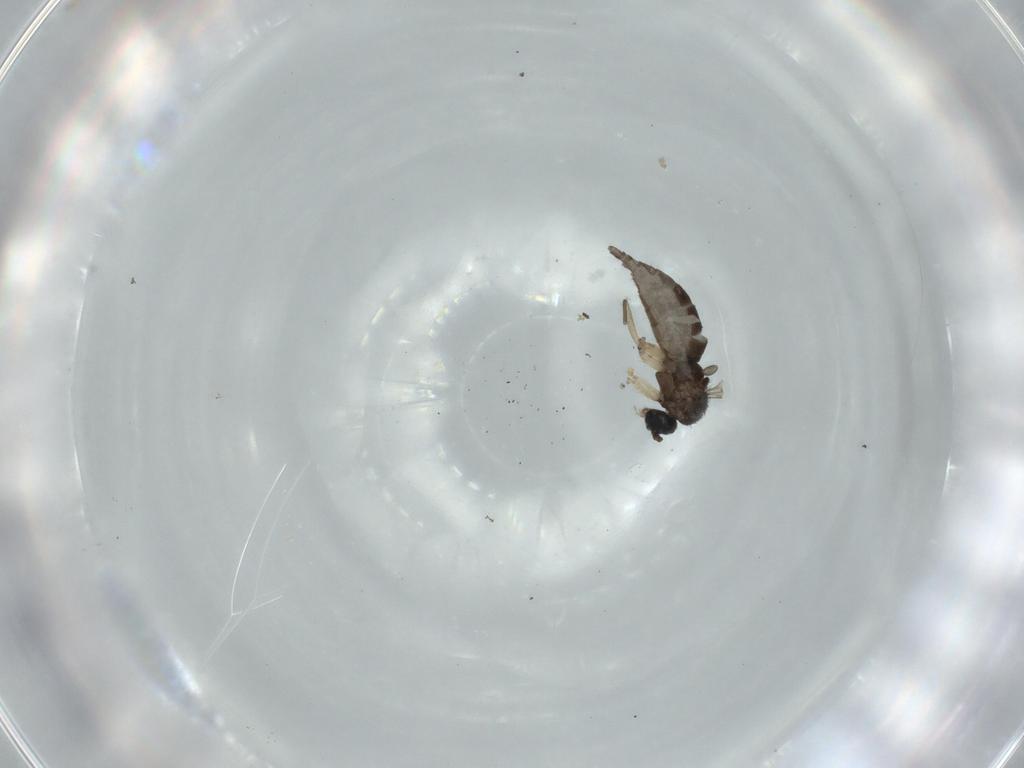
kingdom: Animalia
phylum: Arthropoda
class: Insecta
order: Diptera
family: Sciaridae
